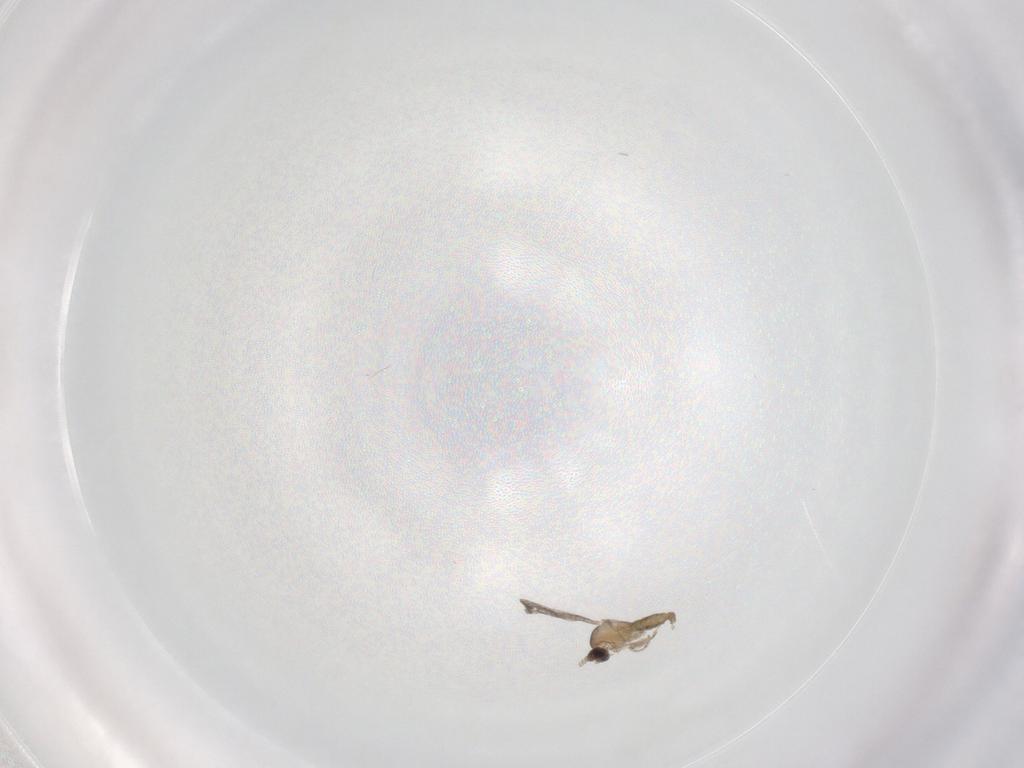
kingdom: Animalia
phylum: Arthropoda
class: Insecta
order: Diptera
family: Cecidomyiidae
